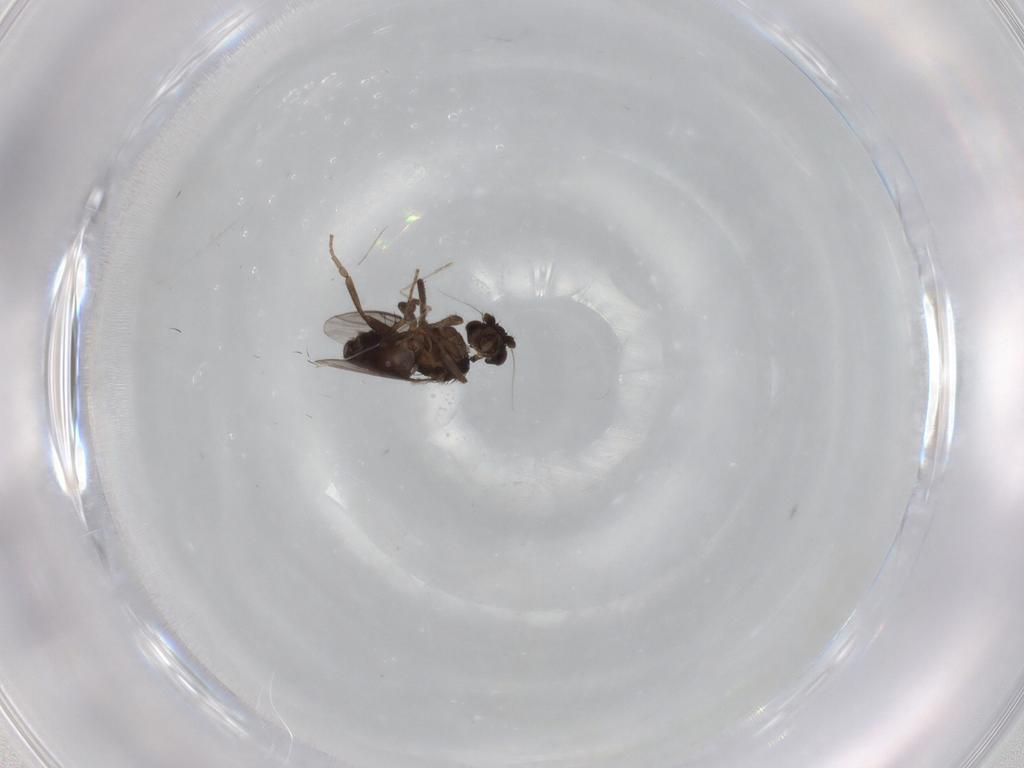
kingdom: Animalia
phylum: Arthropoda
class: Insecta
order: Diptera
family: Sphaeroceridae
